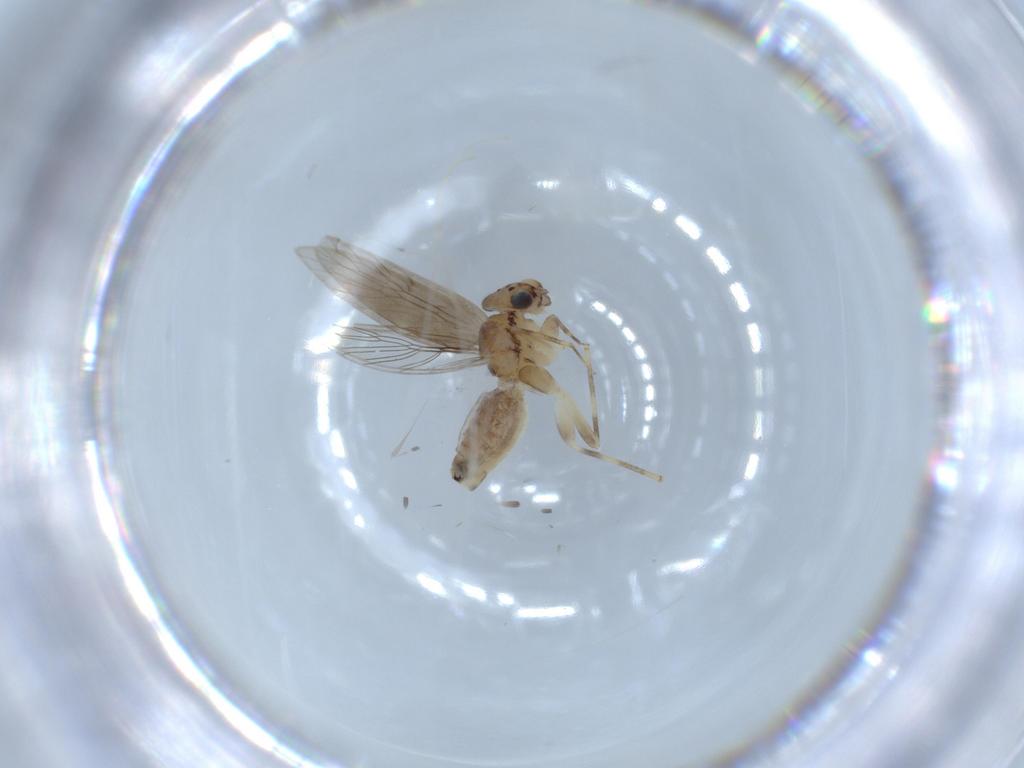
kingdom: Animalia
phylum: Arthropoda
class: Insecta
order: Psocodea
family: Lepidopsocidae
